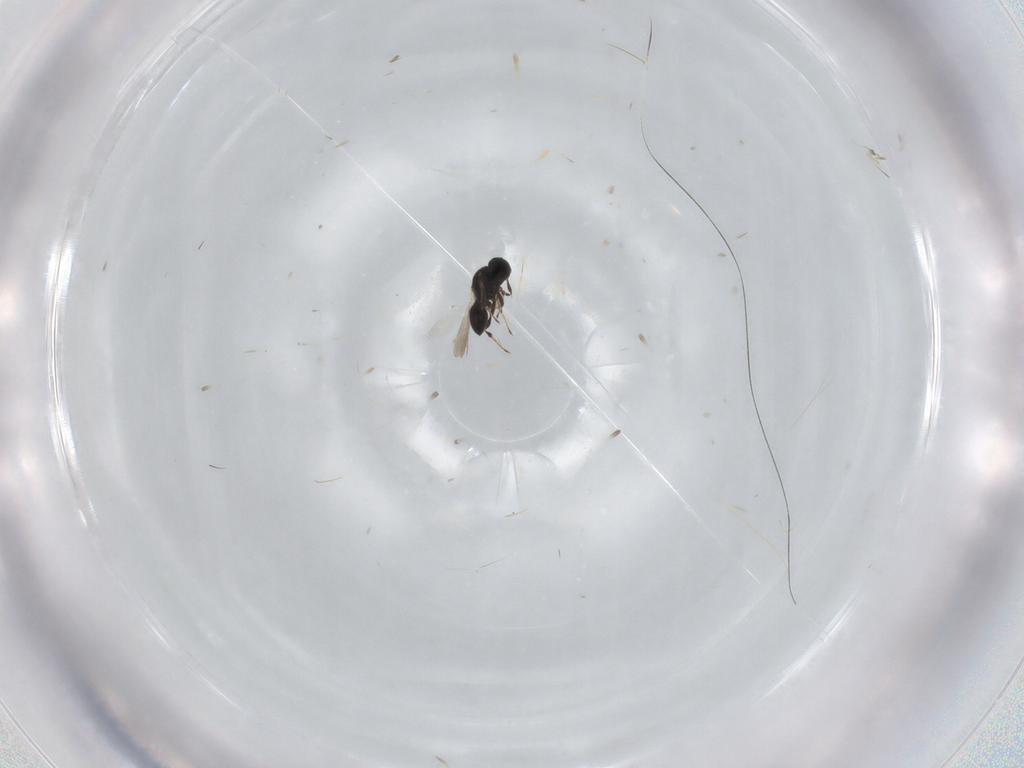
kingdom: Animalia
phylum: Arthropoda
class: Insecta
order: Hymenoptera
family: Platygastridae
